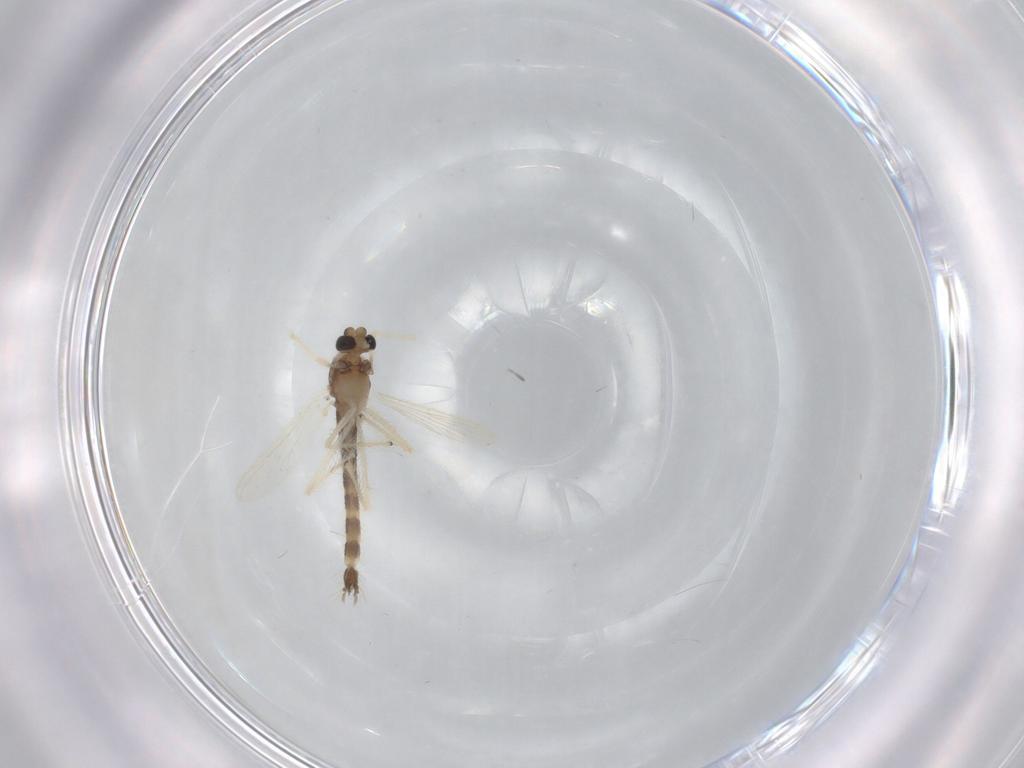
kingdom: Animalia
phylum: Arthropoda
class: Insecta
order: Diptera
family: Chironomidae
